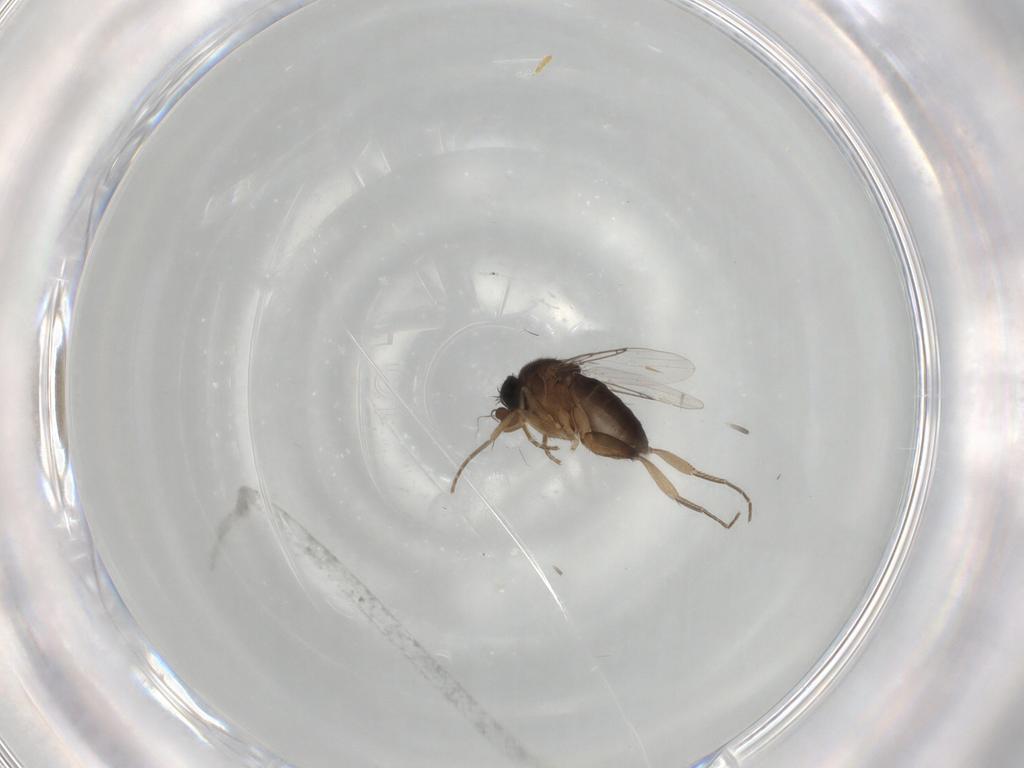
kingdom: Animalia
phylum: Arthropoda
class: Insecta
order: Diptera
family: Phoridae
